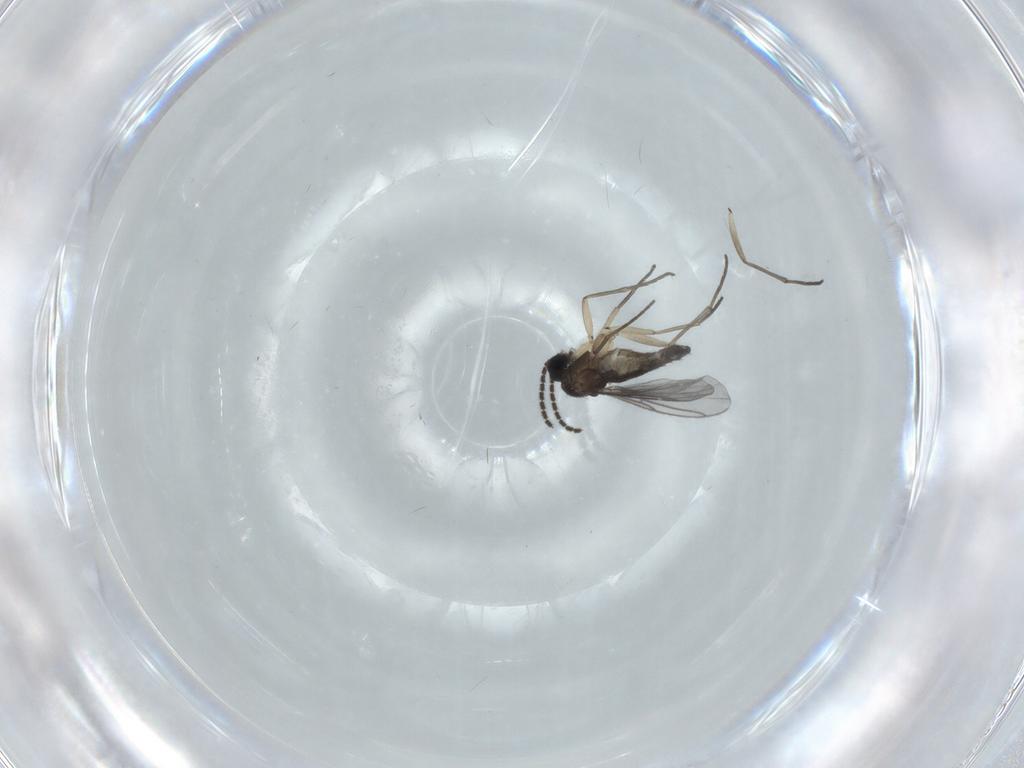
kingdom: Animalia
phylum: Arthropoda
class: Insecta
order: Diptera
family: Sciaridae
